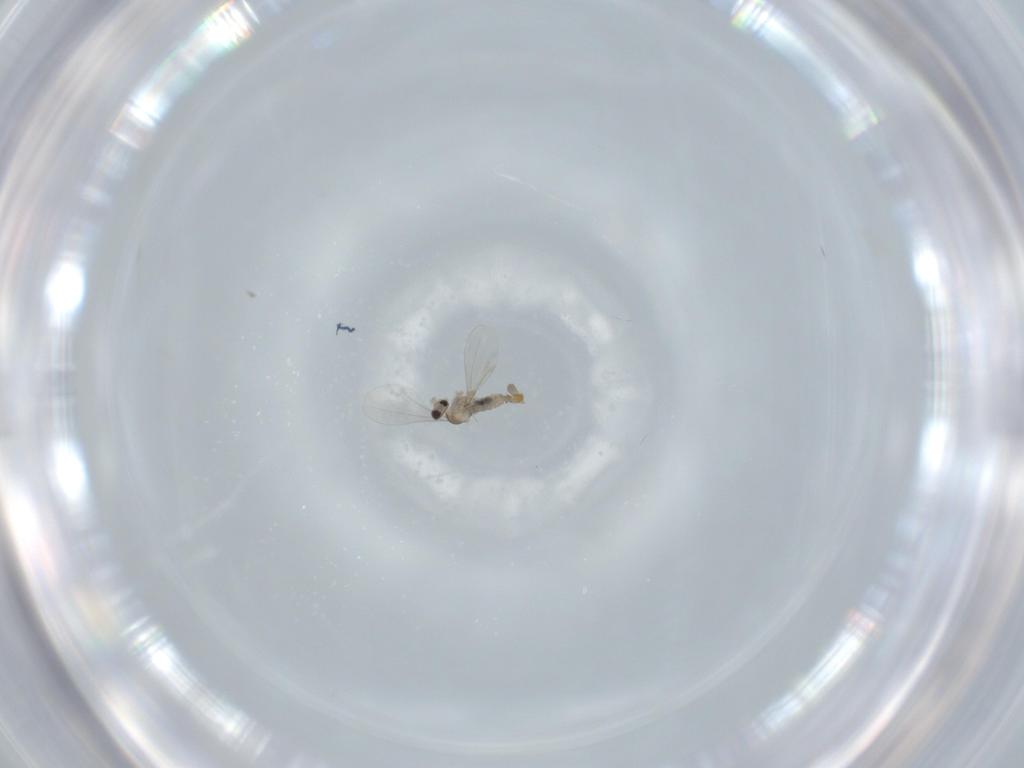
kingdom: Animalia
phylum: Arthropoda
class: Insecta
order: Diptera
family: Cecidomyiidae
